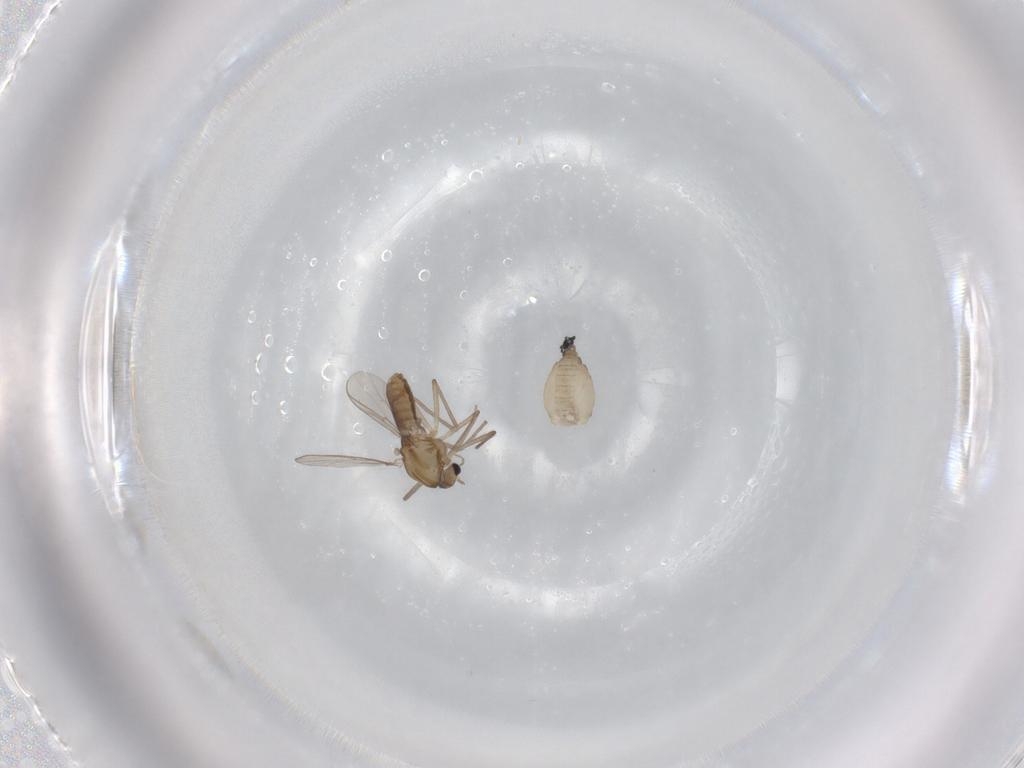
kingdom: Animalia
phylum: Arthropoda
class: Insecta
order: Diptera
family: Chironomidae
